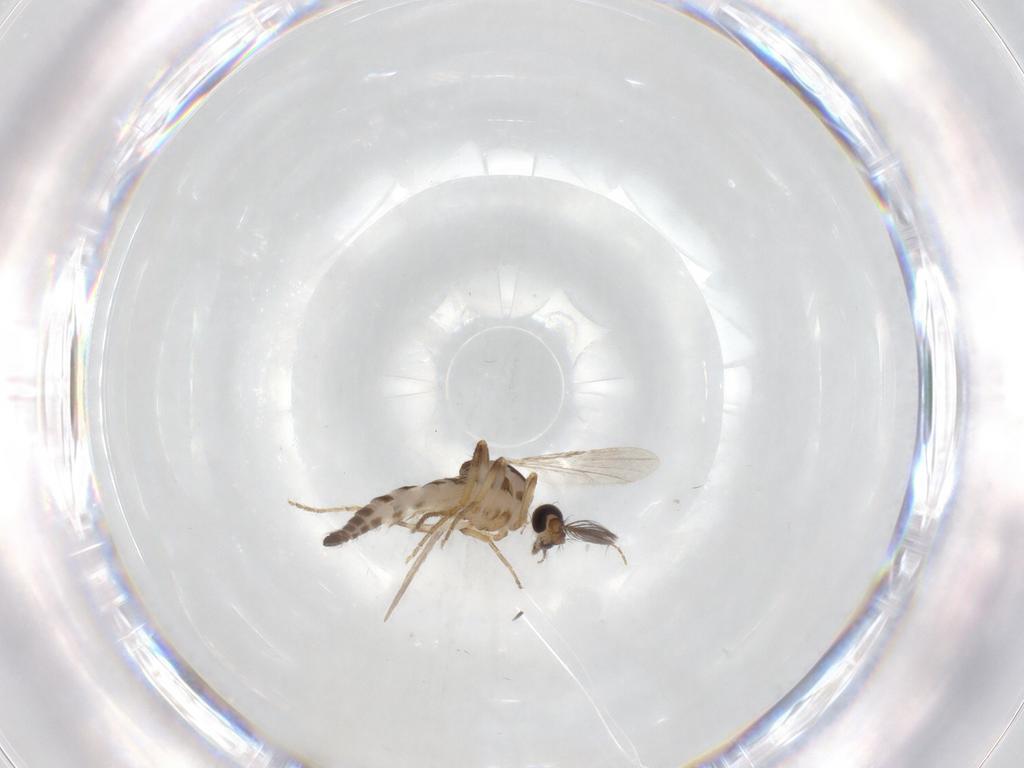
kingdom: Animalia
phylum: Arthropoda
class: Insecta
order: Diptera
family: Ceratopogonidae
